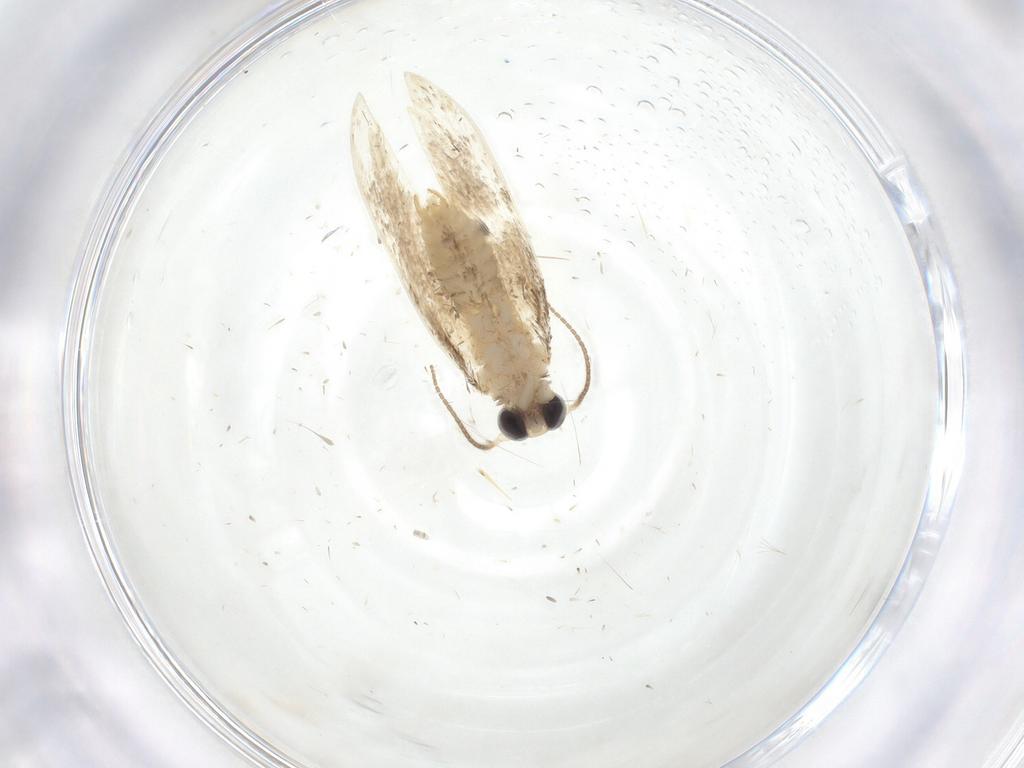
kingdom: Animalia
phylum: Arthropoda
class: Insecta
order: Lepidoptera
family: Psychidae
